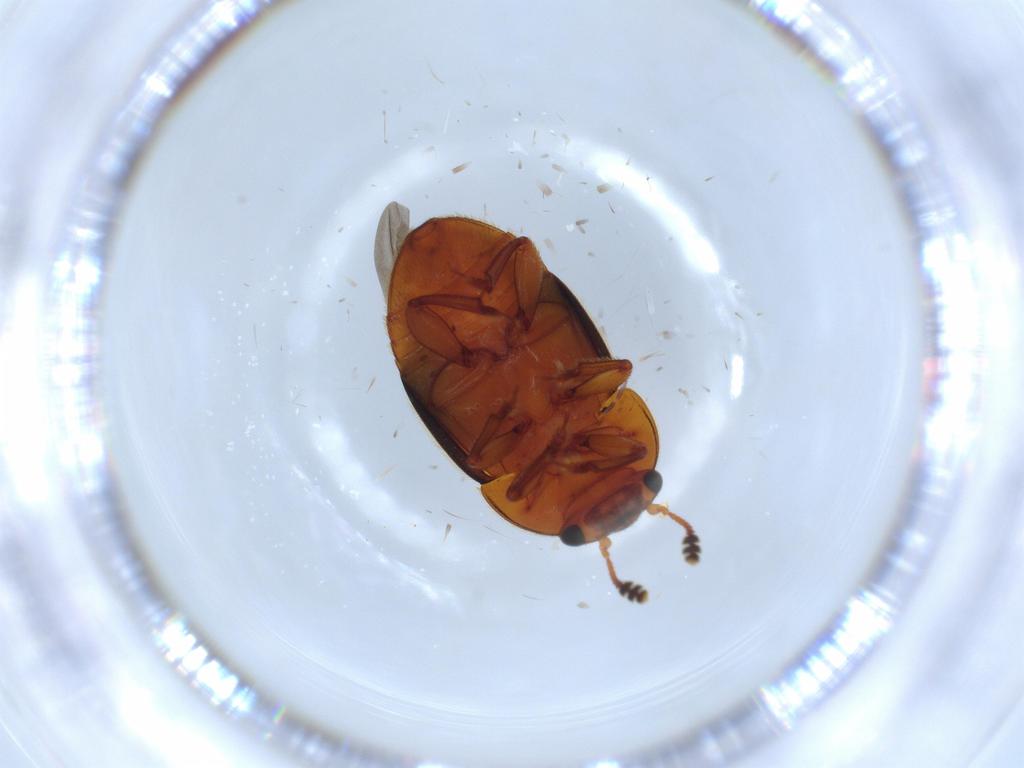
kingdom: Animalia
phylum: Arthropoda
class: Insecta
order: Coleoptera
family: Nitidulidae
